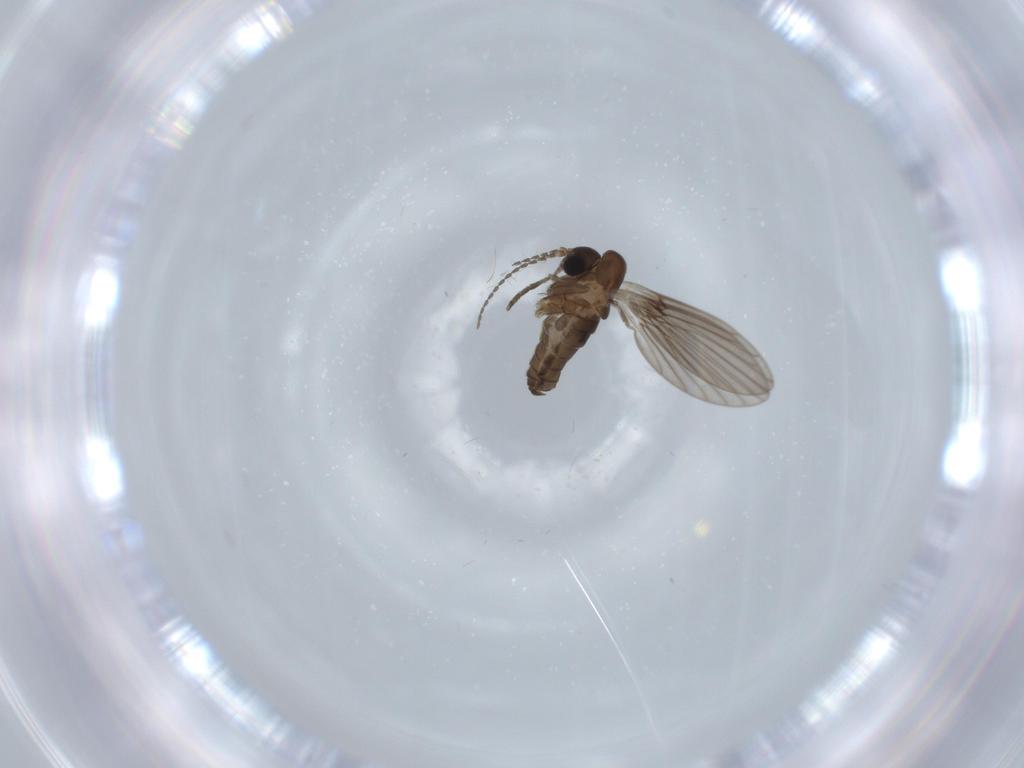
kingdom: Animalia
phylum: Arthropoda
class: Insecta
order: Diptera
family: Psychodidae
